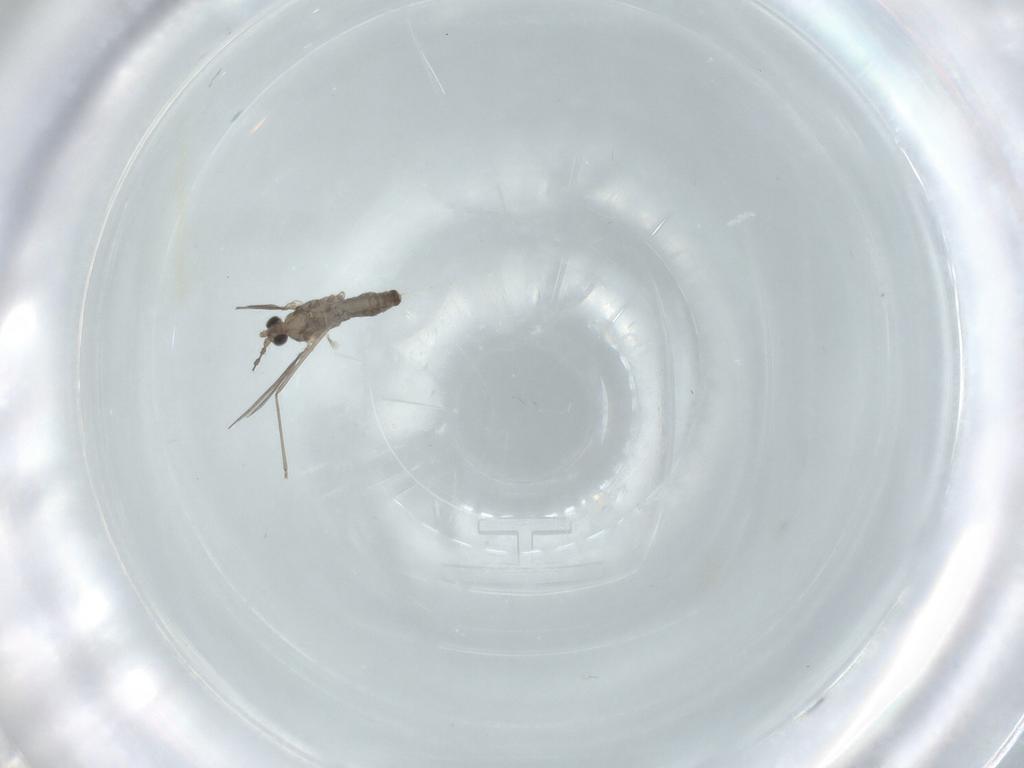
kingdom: Animalia
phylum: Arthropoda
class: Insecta
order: Diptera
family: Cecidomyiidae
